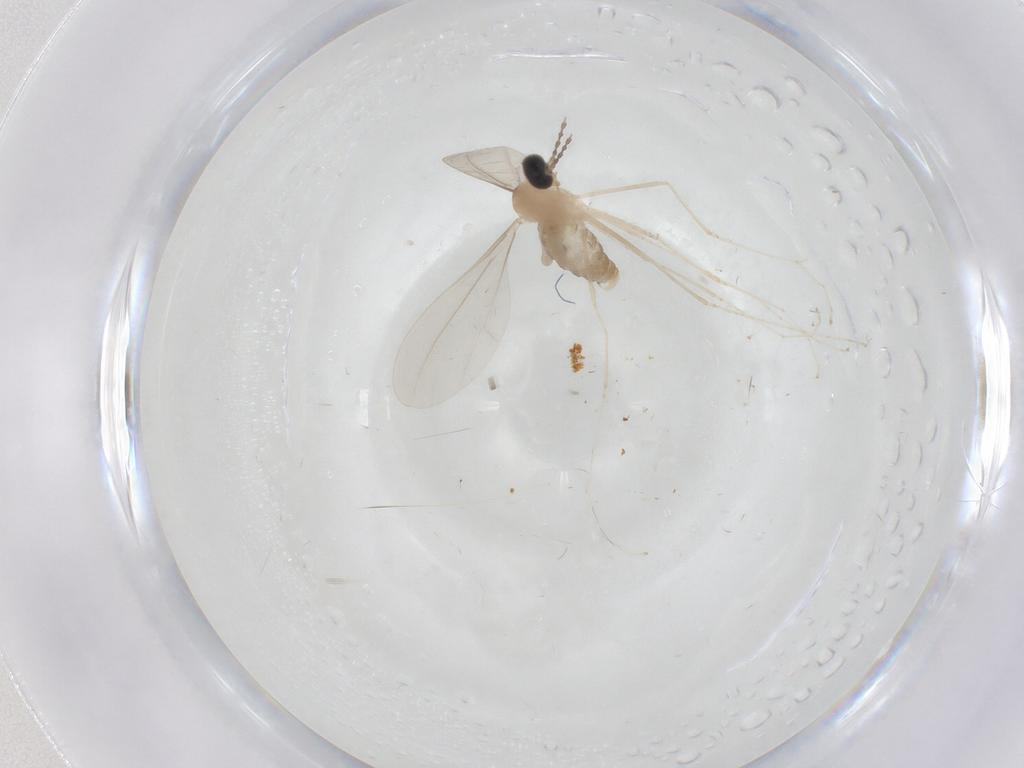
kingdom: Animalia
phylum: Arthropoda
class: Insecta
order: Diptera
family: Cecidomyiidae
